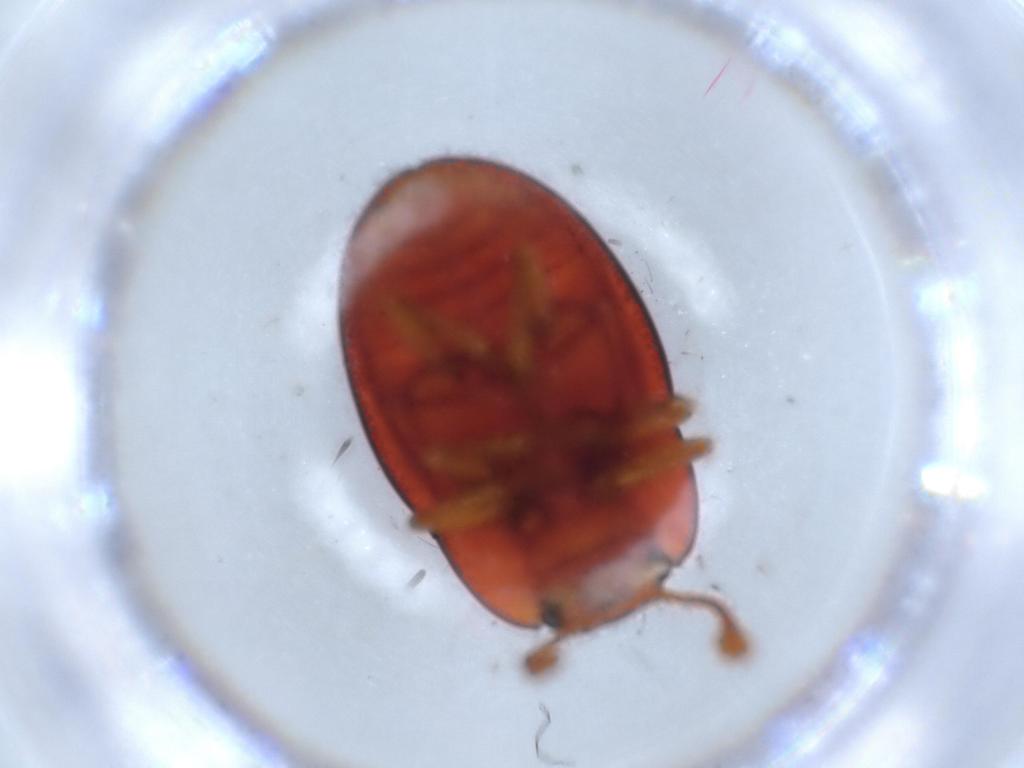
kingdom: Animalia
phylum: Arthropoda
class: Insecta
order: Coleoptera
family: Erotylidae
